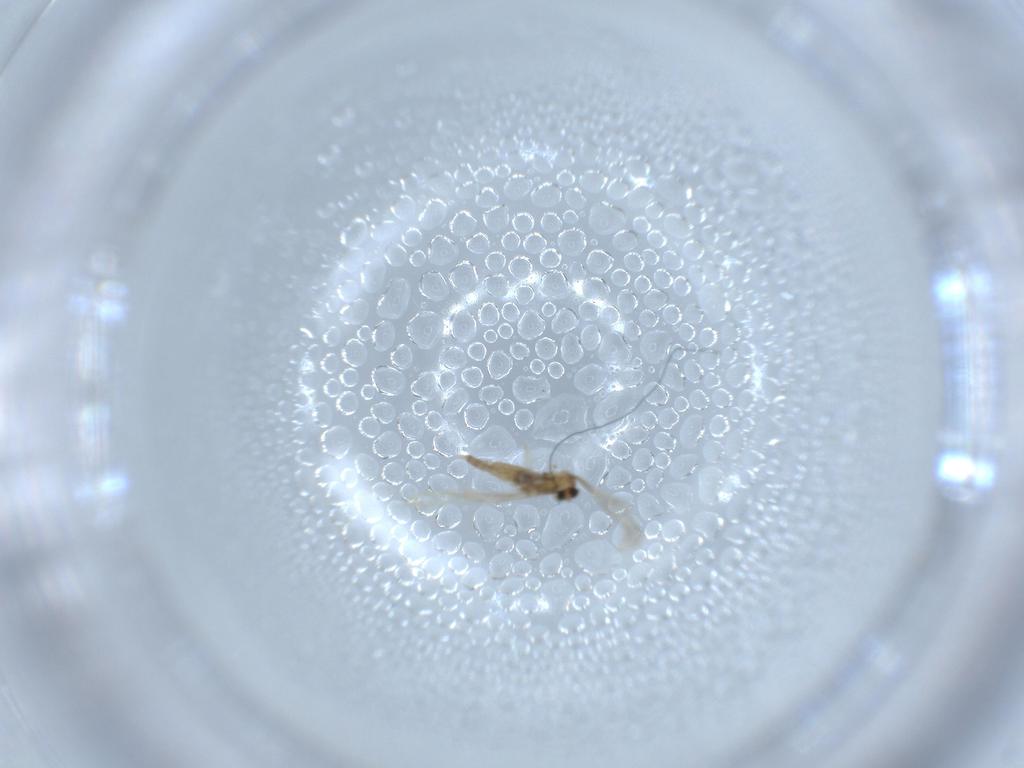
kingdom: Animalia
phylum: Arthropoda
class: Insecta
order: Diptera
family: Cecidomyiidae
